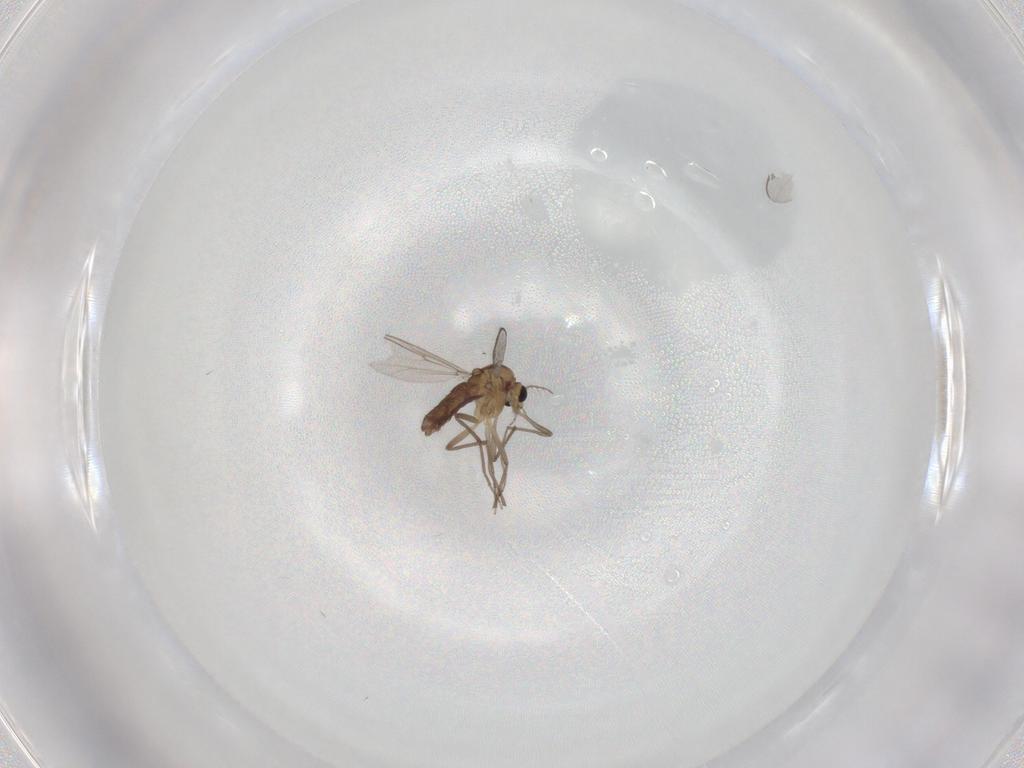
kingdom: Animalia
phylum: Arthropoda
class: Insecta
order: Diptera
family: Chironomidae
